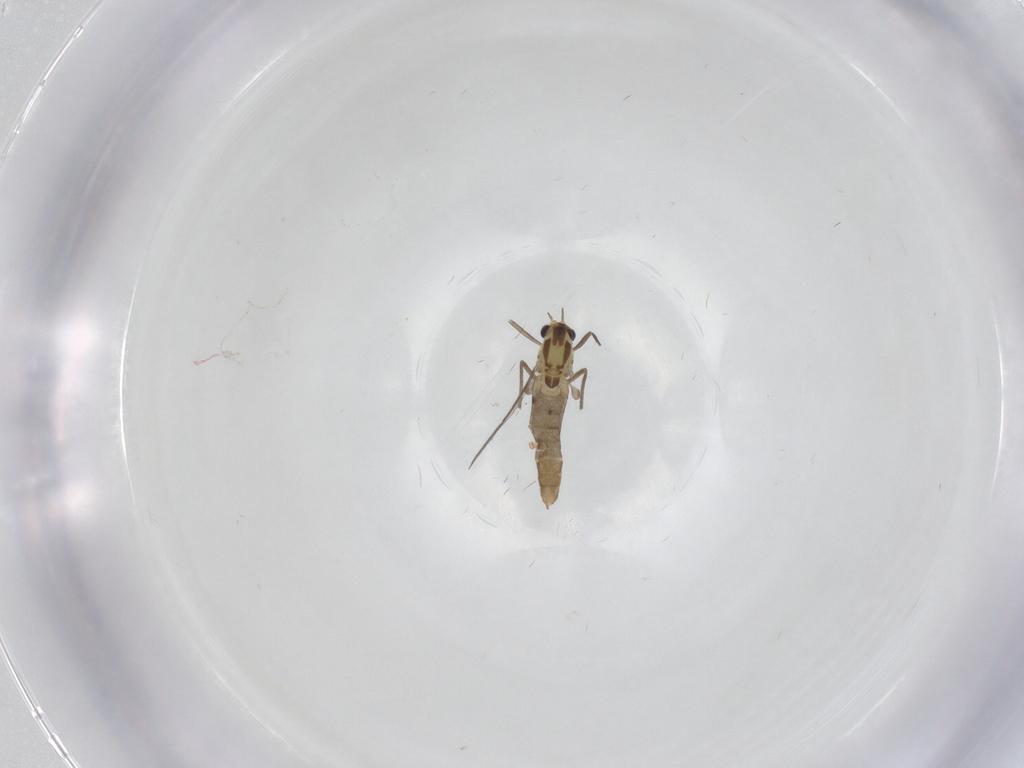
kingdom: Animalia
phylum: Arthropoda
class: Insecta
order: Diptera
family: Chironomidae
